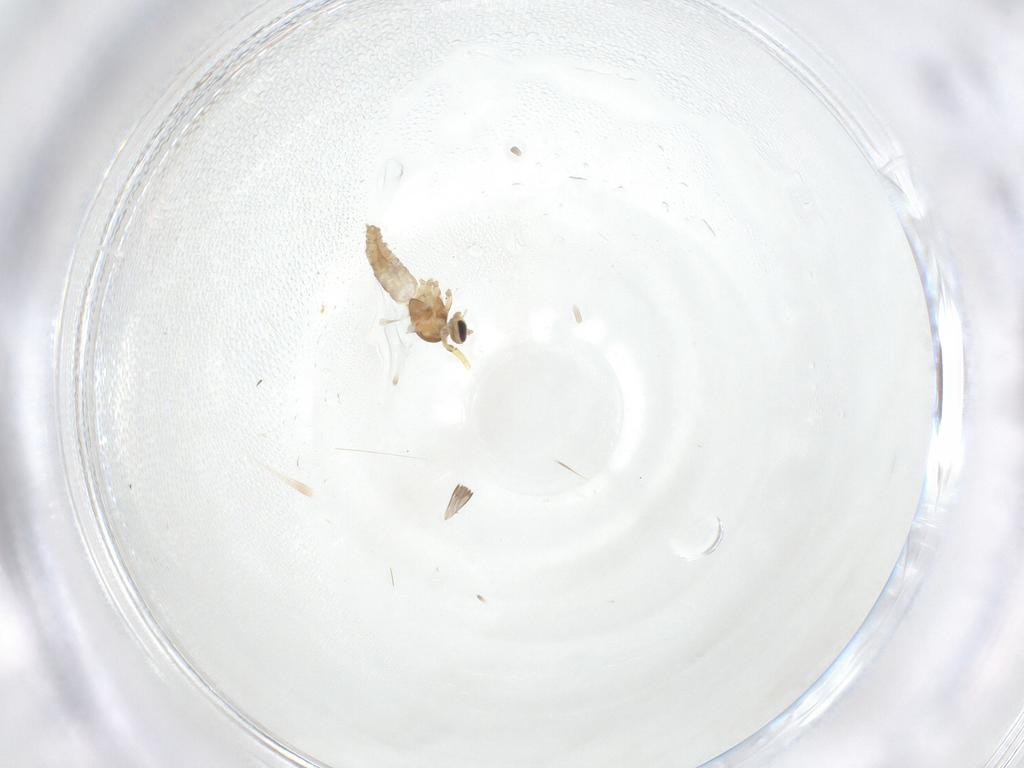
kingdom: Animalia
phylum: Arthropoda
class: Insecta
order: Diptera
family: Cecidomyiidae
